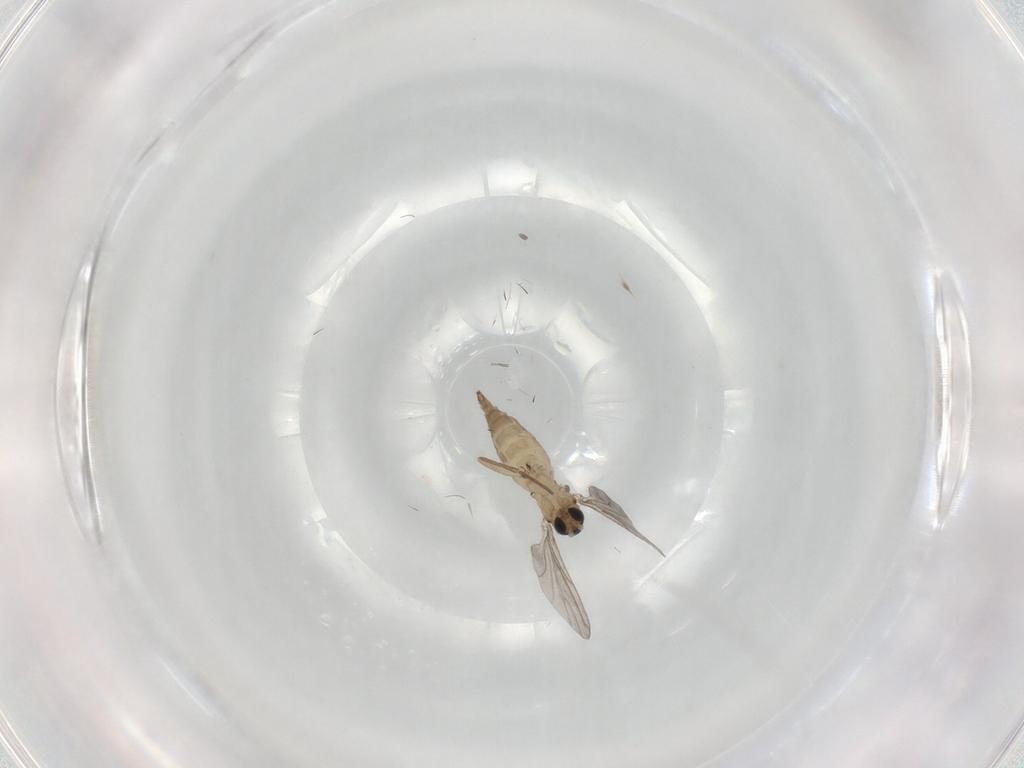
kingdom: Animalia
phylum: Arthropoda
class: Insecta
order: Diptera
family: Sciaridae
